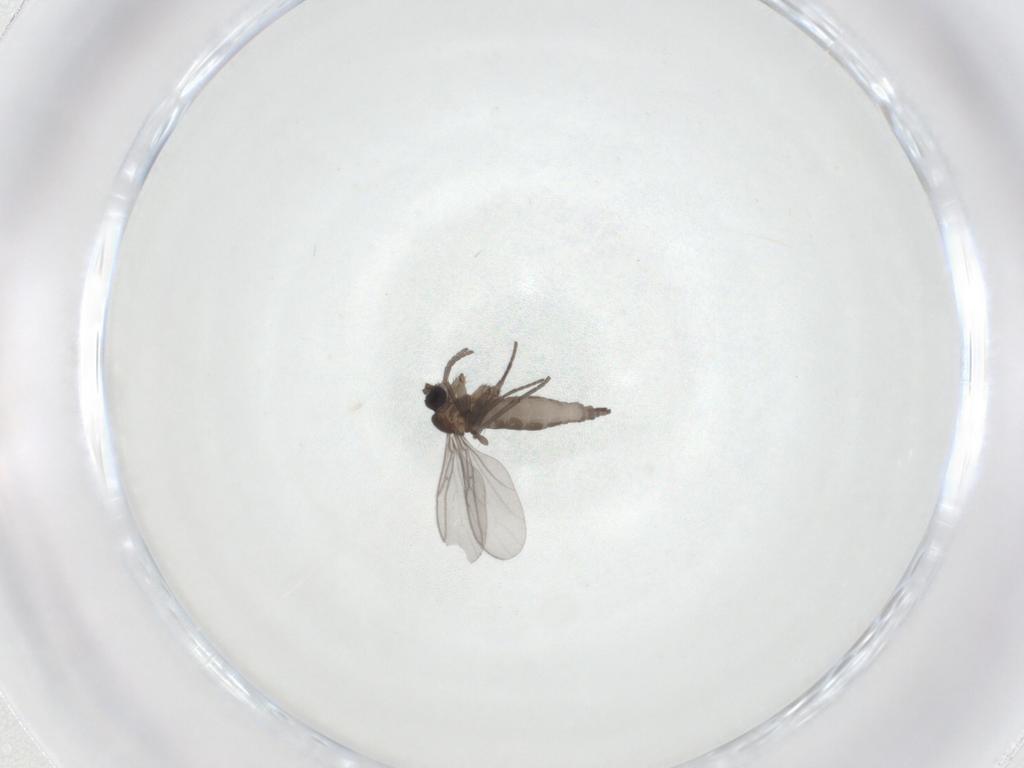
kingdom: Animalia
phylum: Arthropoda
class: Insecta
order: Diptera
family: Sciaridae
